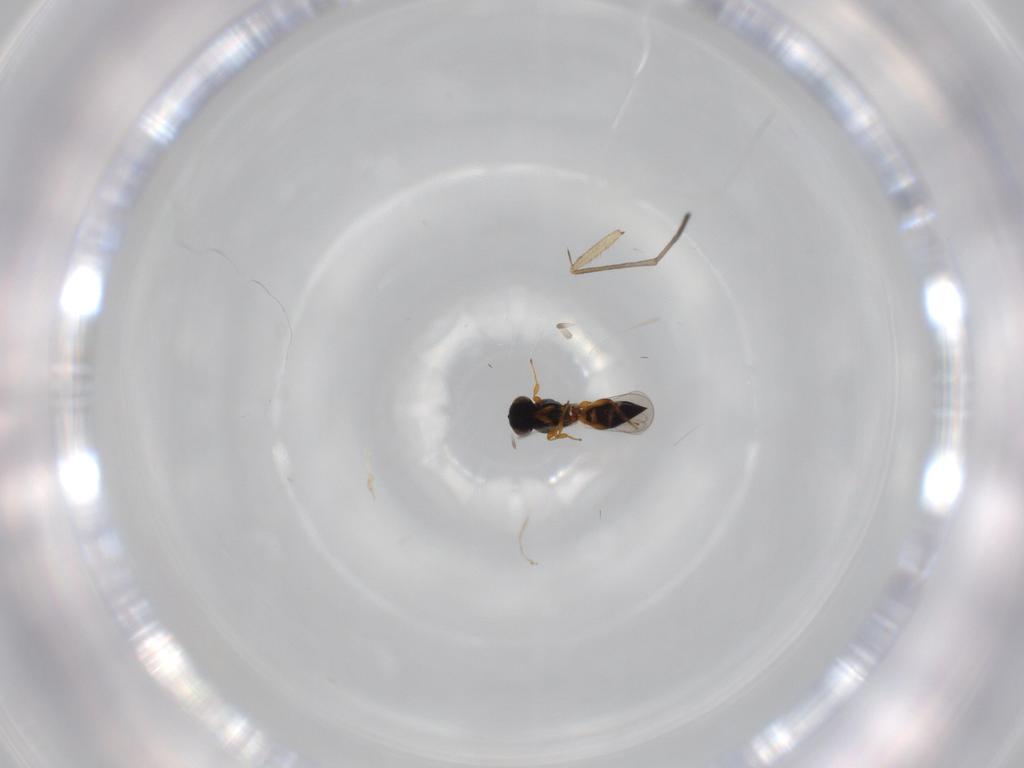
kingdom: Animalia
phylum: Arthropoda
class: Insecta
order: Hymenoptera
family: Platygastridae
